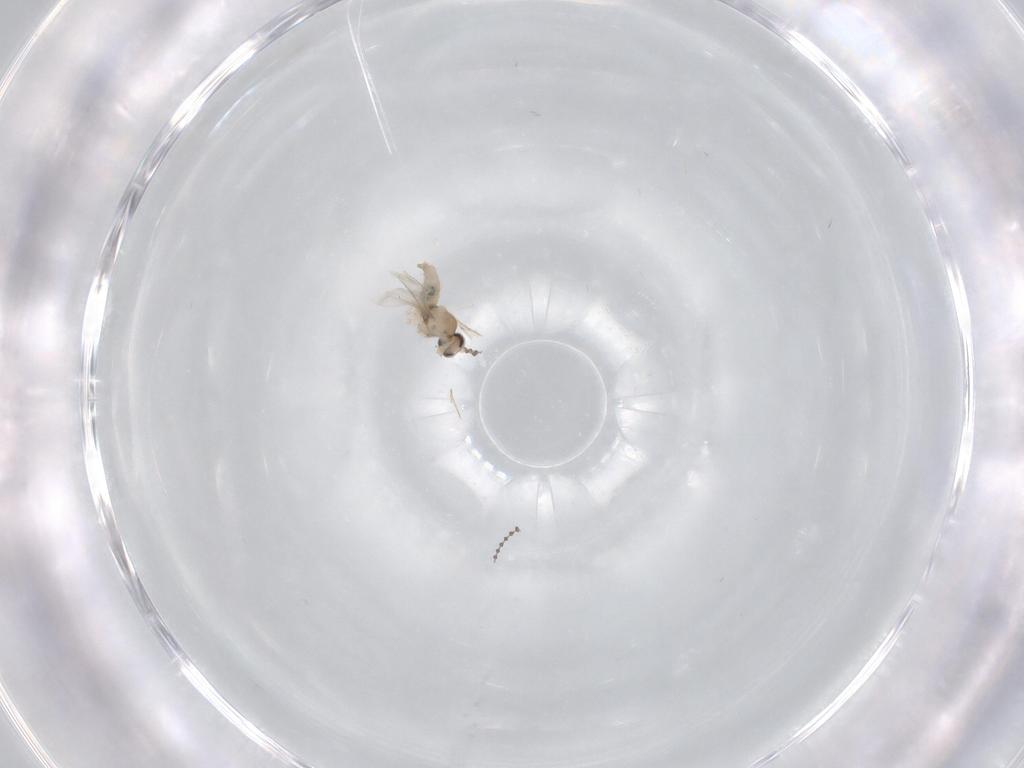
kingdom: Animalia
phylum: Arthropoda
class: Insecta
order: Diptera
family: Cecidomyiidae
